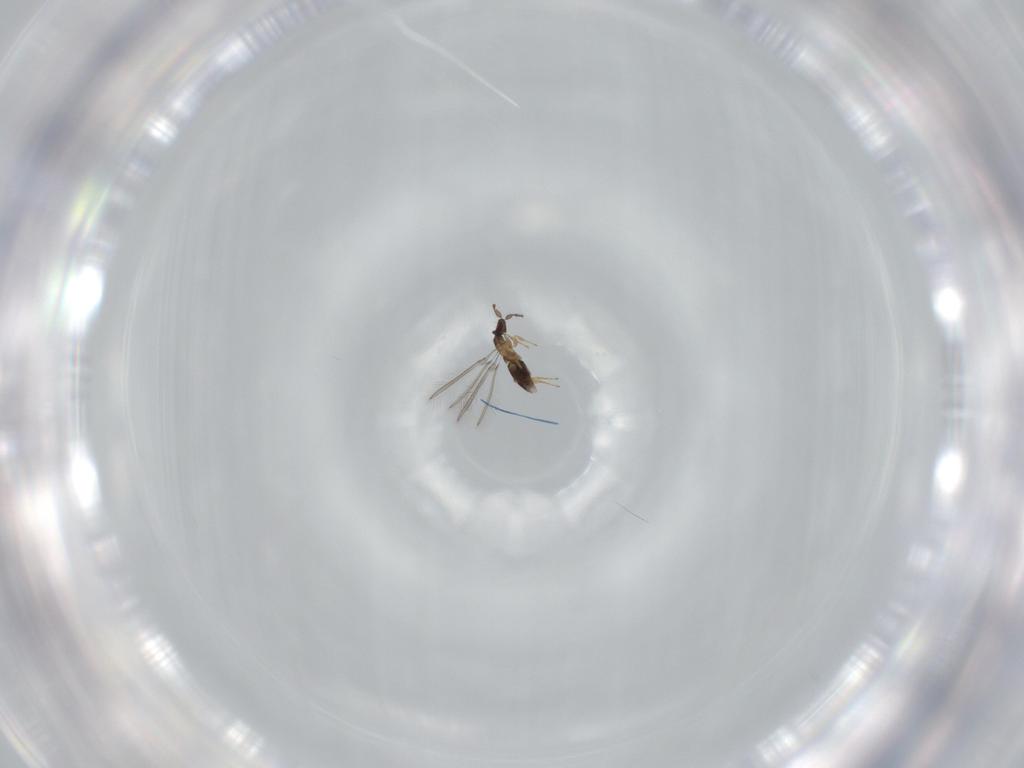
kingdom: Animalia
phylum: Arthropoda
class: Insecta
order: Hymenoptera
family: Mymaridae
